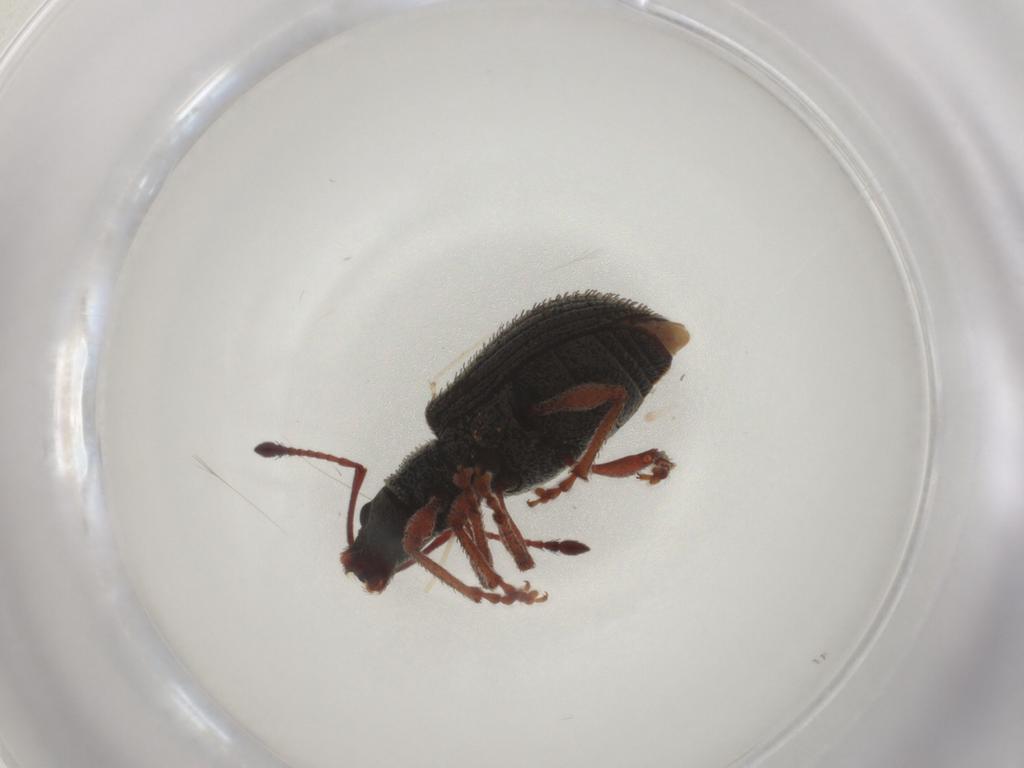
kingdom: Animalia
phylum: Arthropoda
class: Insecta
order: Coleoptera
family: Curculionidae
